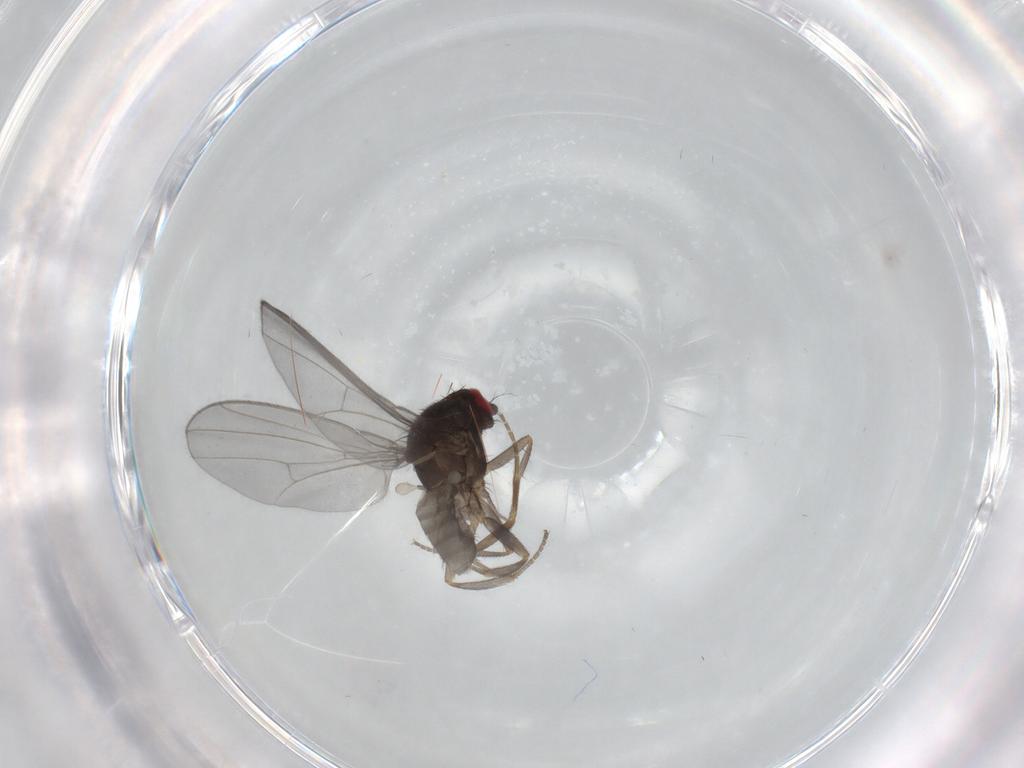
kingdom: Animalia
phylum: Arthropoda
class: Insecta
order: Diptera
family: Drosophilidae
